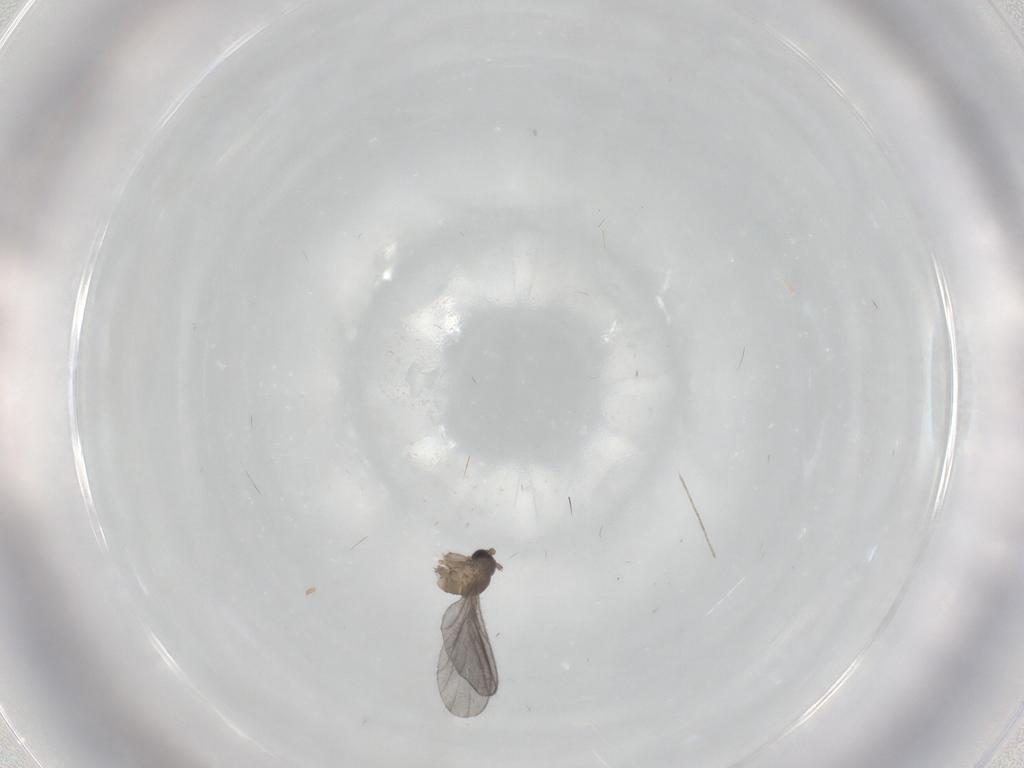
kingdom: Animalia
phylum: Arthropoda
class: Insecta
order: Diptera
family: Sciaridae
